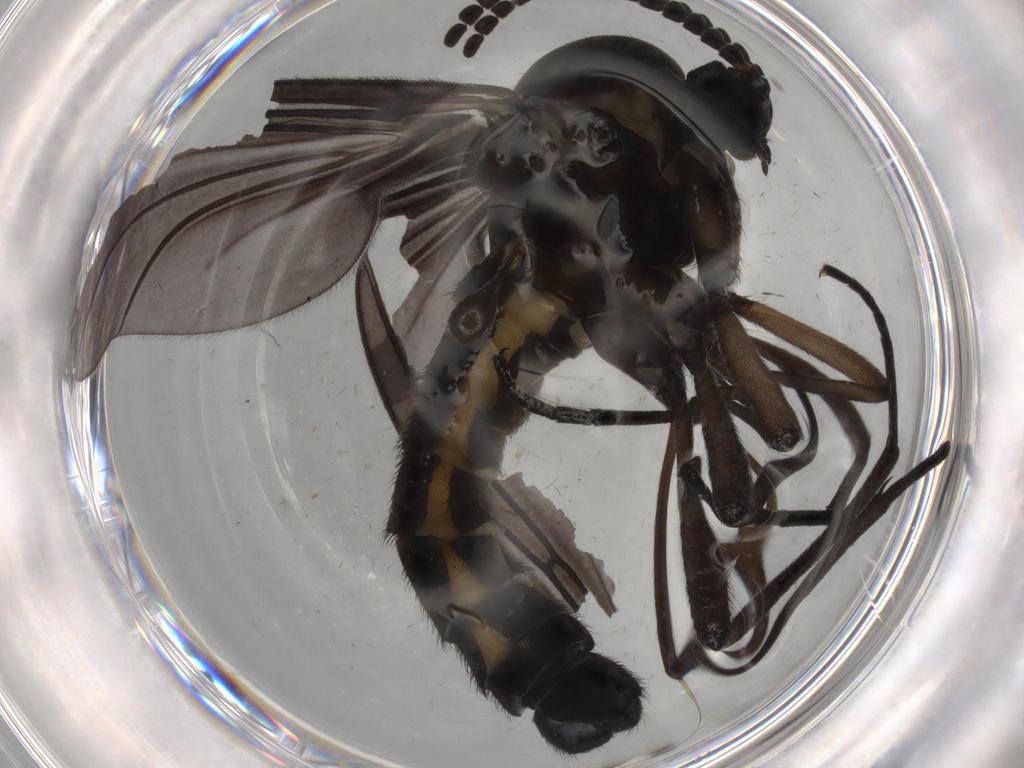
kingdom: Animalia
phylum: Arthropoda
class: Insecta
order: Diptera
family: Sciaridae
